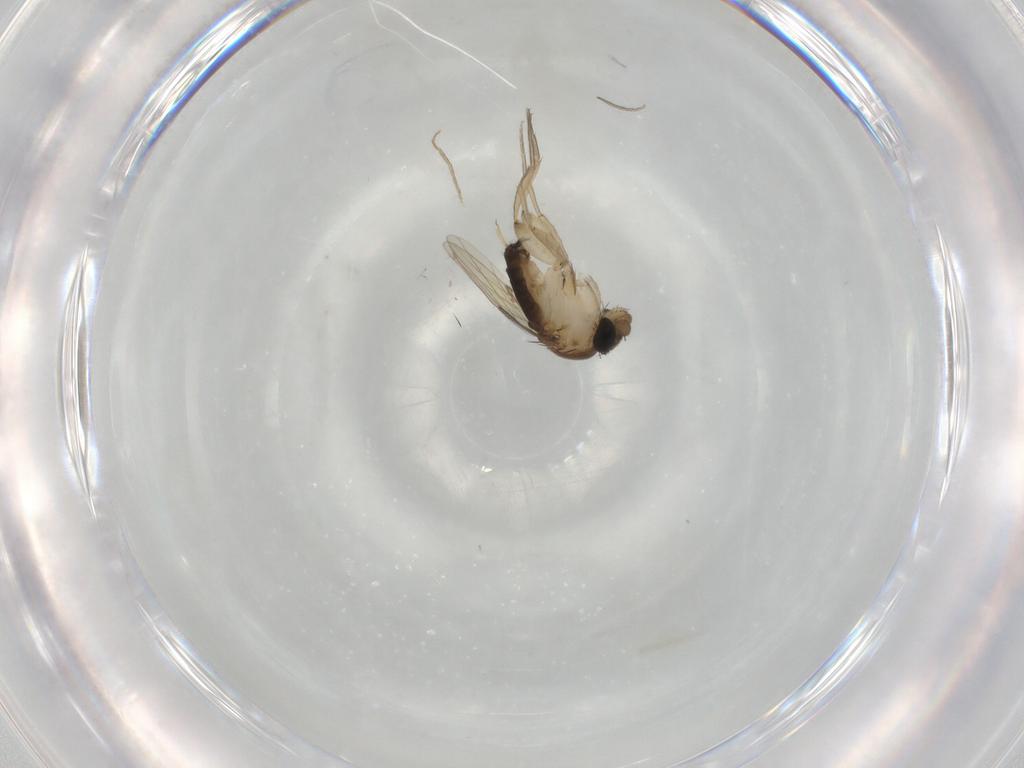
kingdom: Animalia
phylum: Arthropoda
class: Insecta
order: Diptera
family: Phoridae
